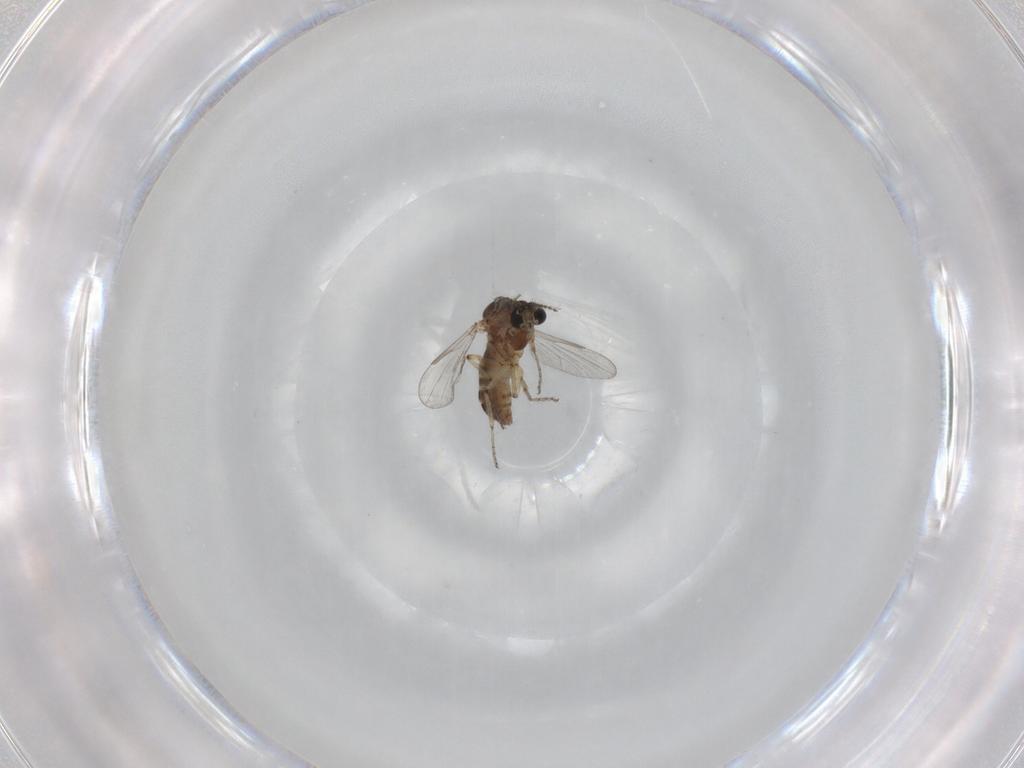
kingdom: Animalia
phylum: Arthropoda
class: Insecta
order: Diptera
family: Ceratopogonidae
